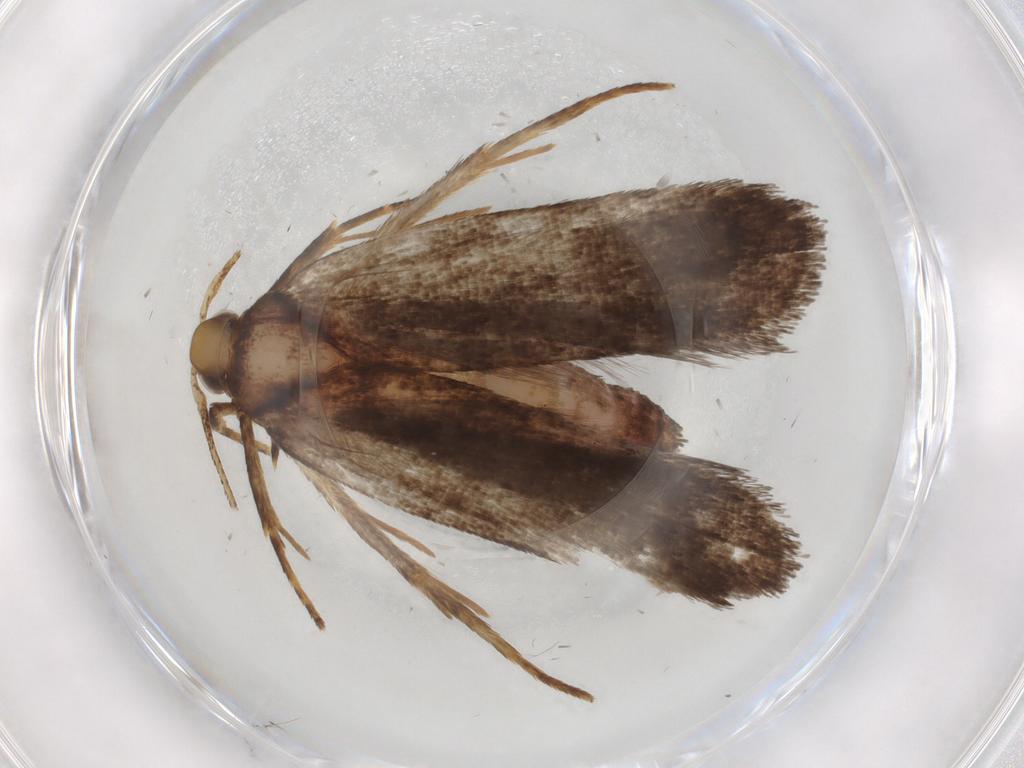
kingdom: Animalia
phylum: Arthropoda
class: Insecta
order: Lepidoptera
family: Autostichidae
